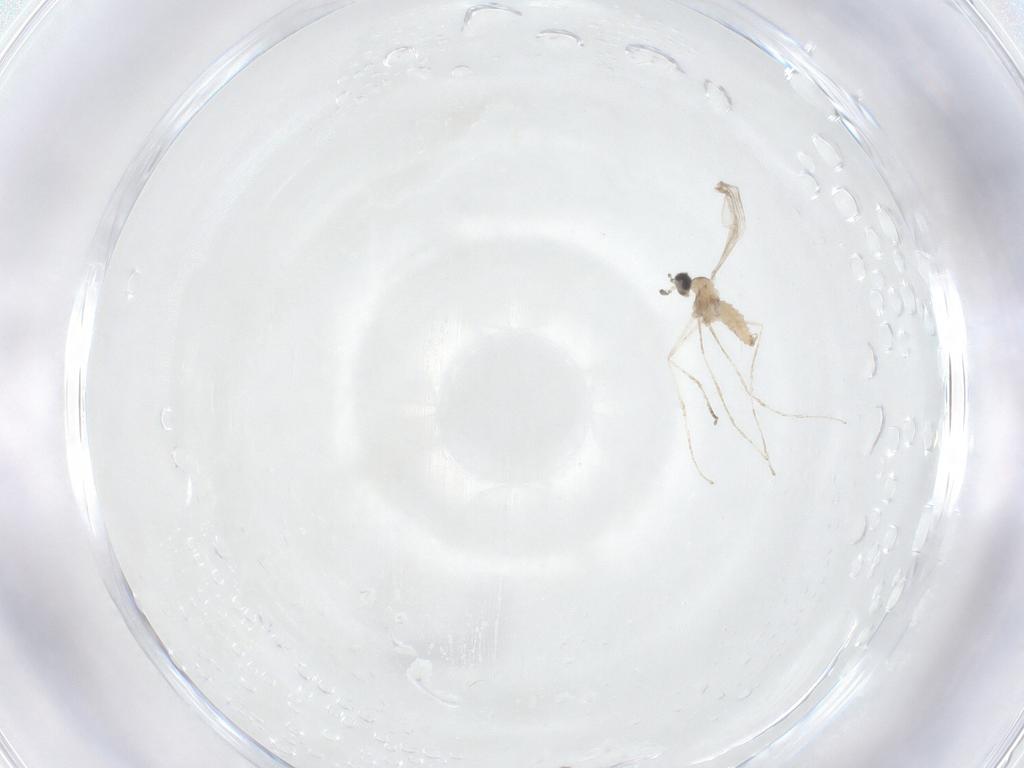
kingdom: Animalia
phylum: Arthropoda
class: Insecta
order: Diptera
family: Cecidomyiidae
